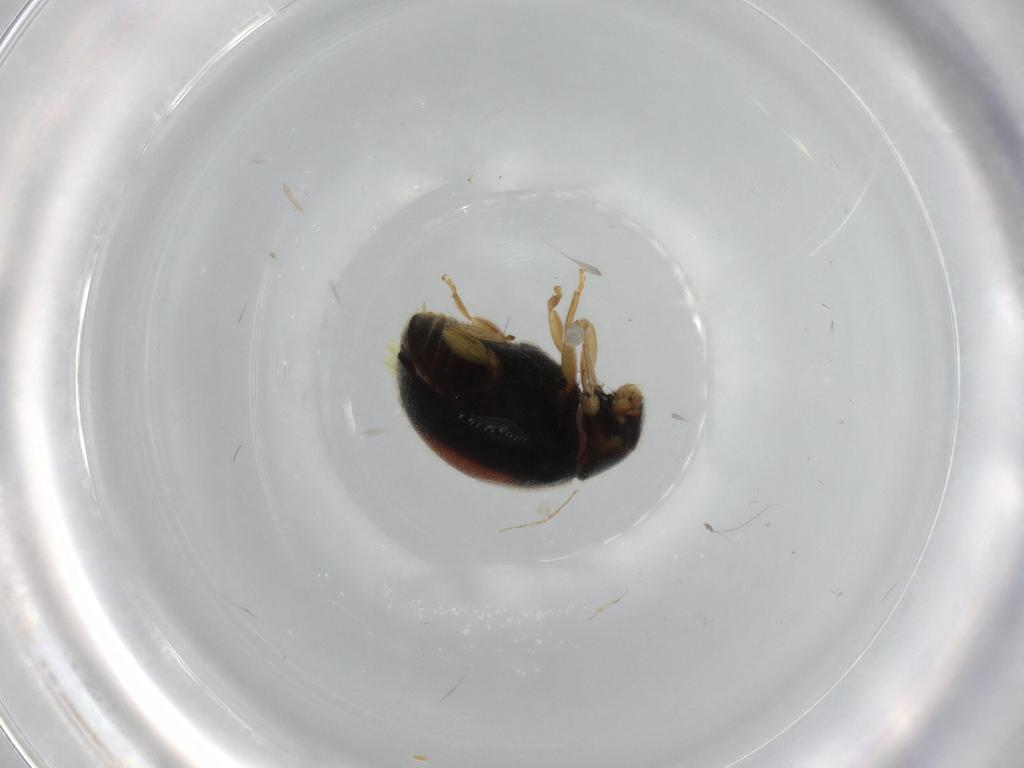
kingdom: Animalia
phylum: Arthropoda
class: Insecta
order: Coleoptera
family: Coccinellidae
